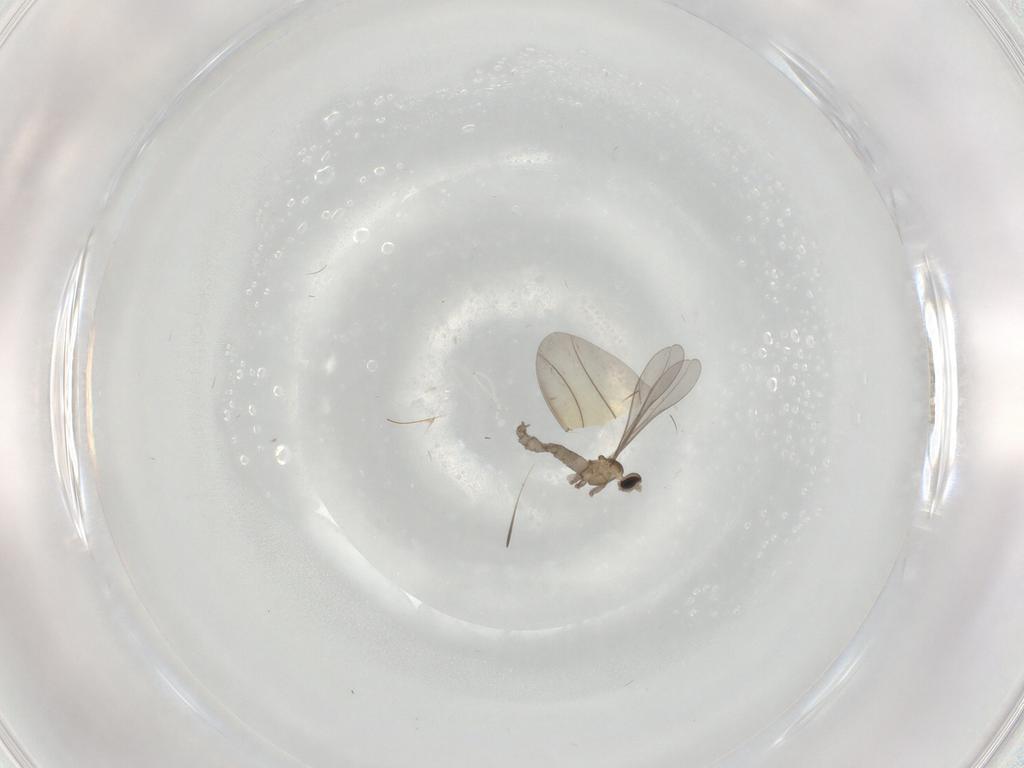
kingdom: Animalia
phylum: Arthropoda
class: Insecta
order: Diptera
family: Cecidomyiidae
